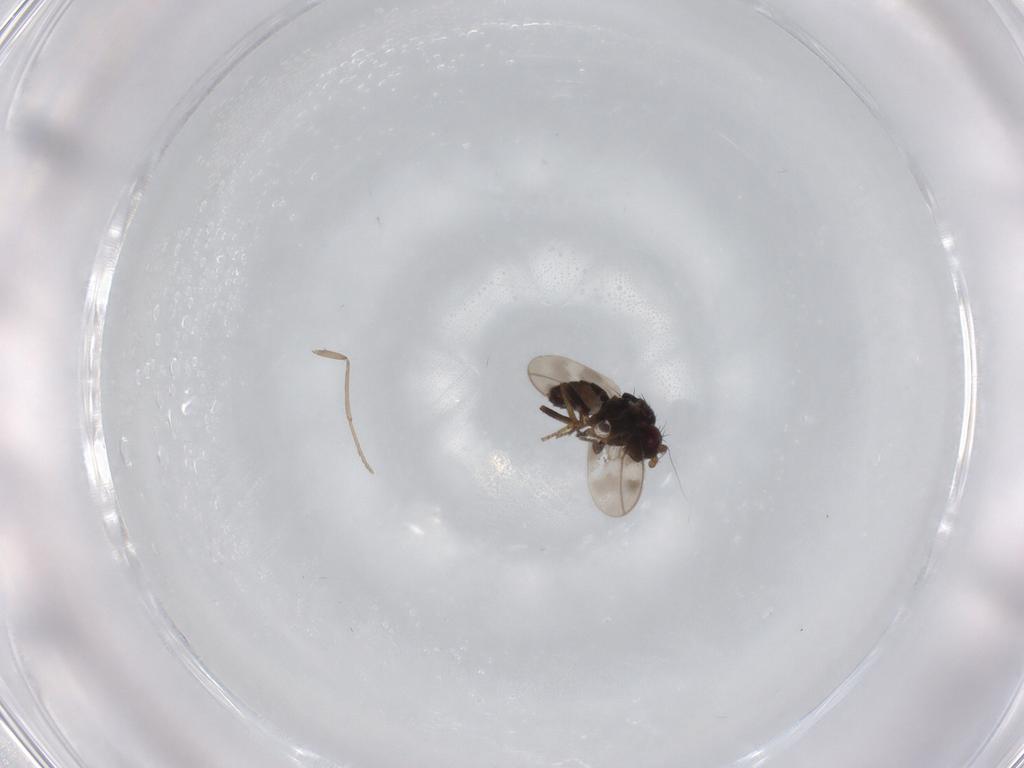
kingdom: Animalia
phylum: Arthropoda
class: Insecta
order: Diptera
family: Sphaeroceridae
